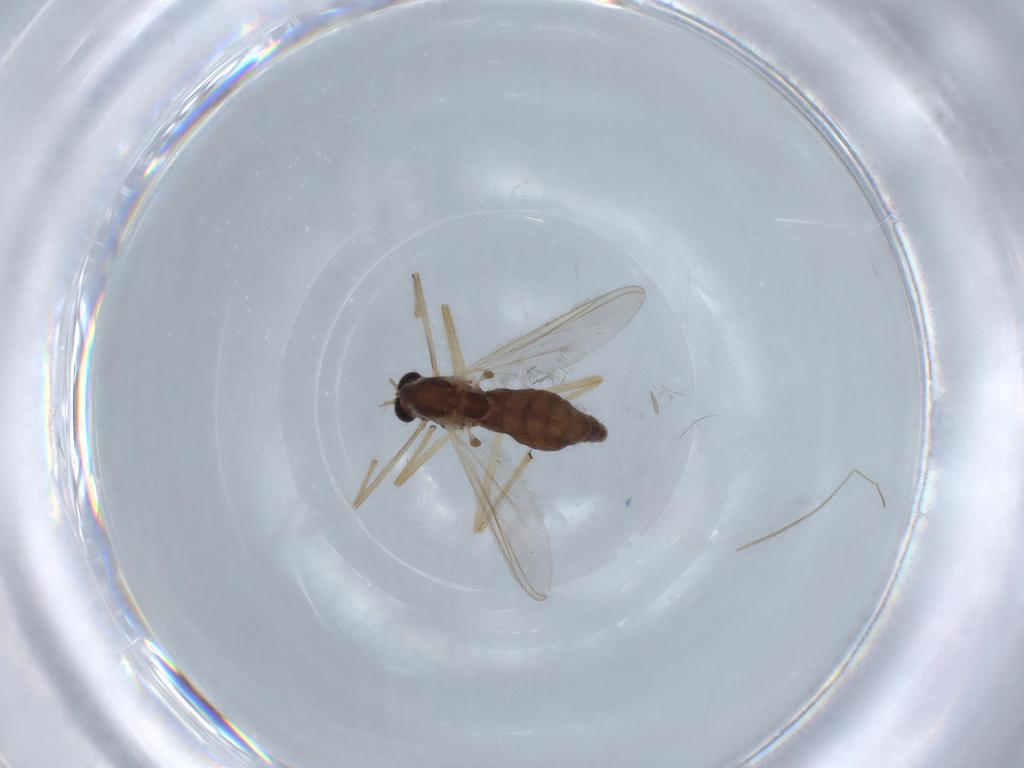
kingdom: Animalia
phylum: Arthropoda
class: Insecta
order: Diptera
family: Chironomidae
